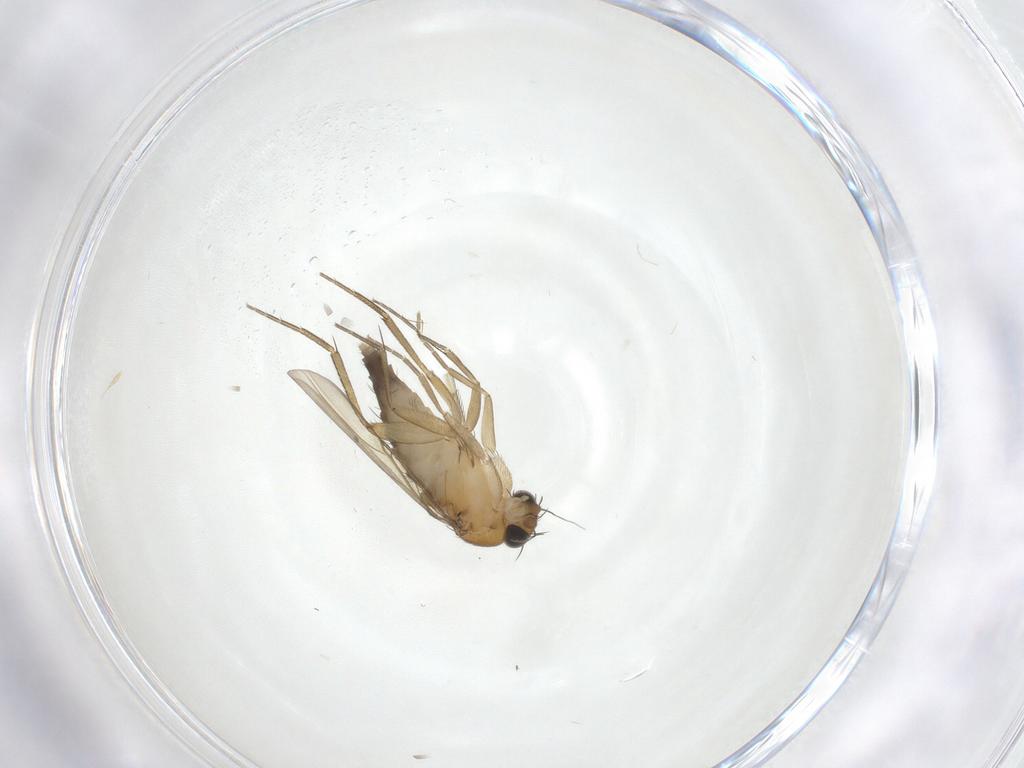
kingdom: Animalia
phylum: Arthropoda
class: Insecta
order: Diptera
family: Phoridae
